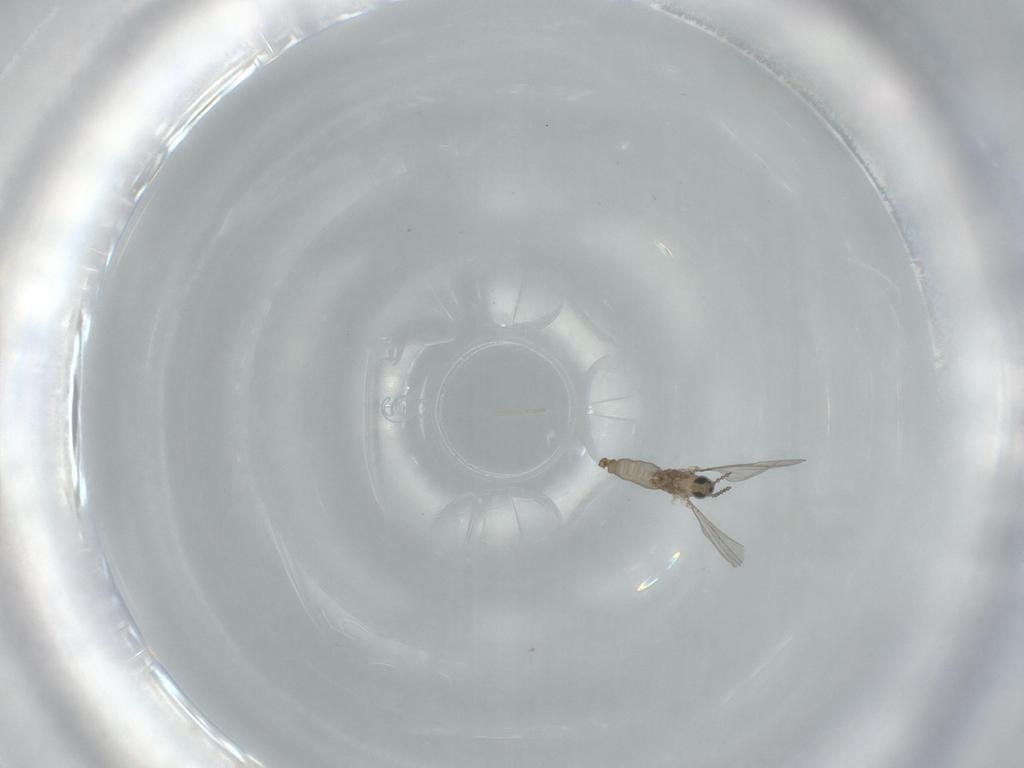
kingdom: Animalia
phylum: Arthropoda
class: Insecta
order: Diptera
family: Cecidomyiidae
